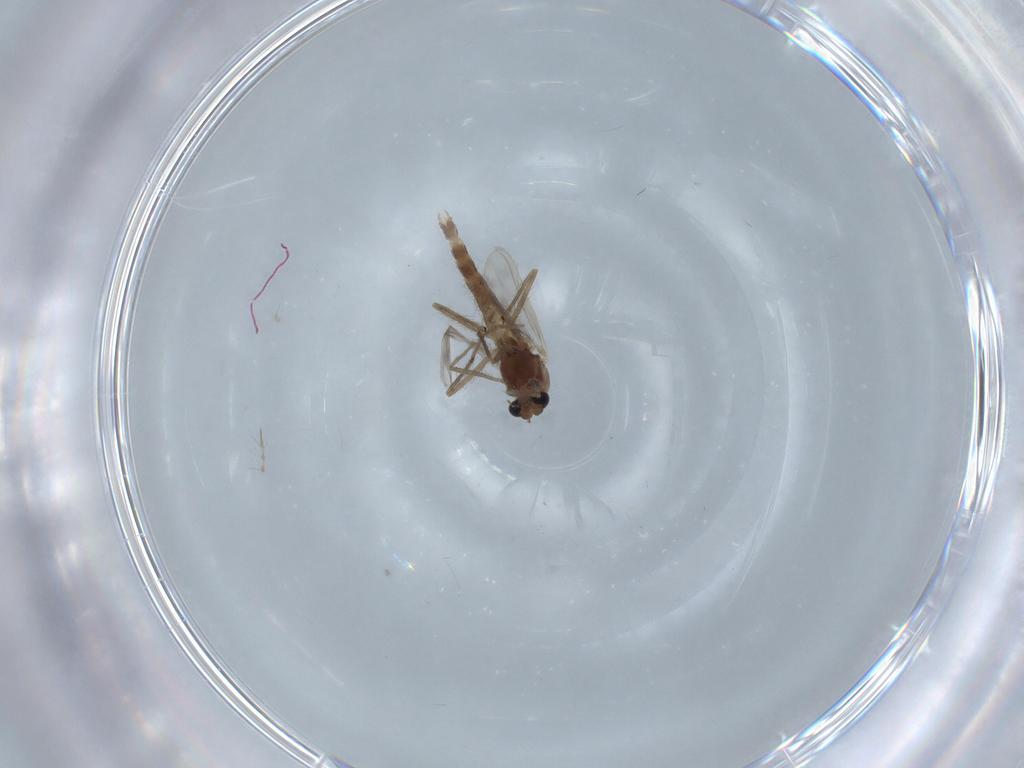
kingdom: Animalia
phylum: Arthropoda
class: Insecta
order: Diptera
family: Chironomidae
